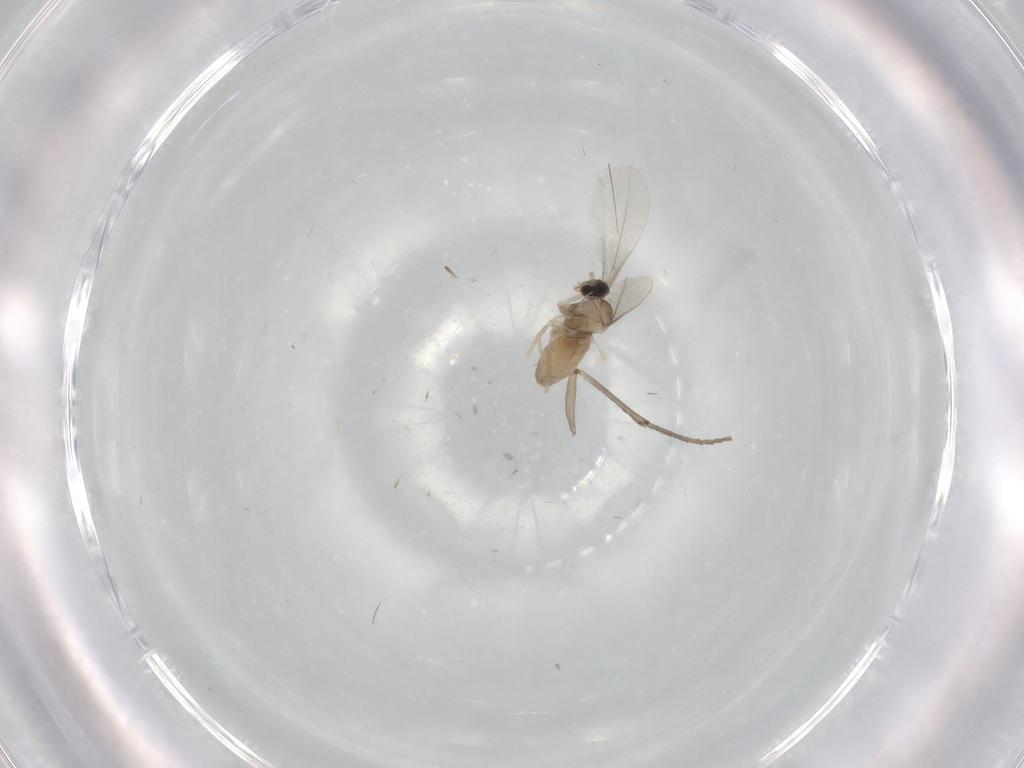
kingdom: Animalia
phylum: Arthropoda
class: Insecta
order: Diptera
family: Cecidomyiidae
